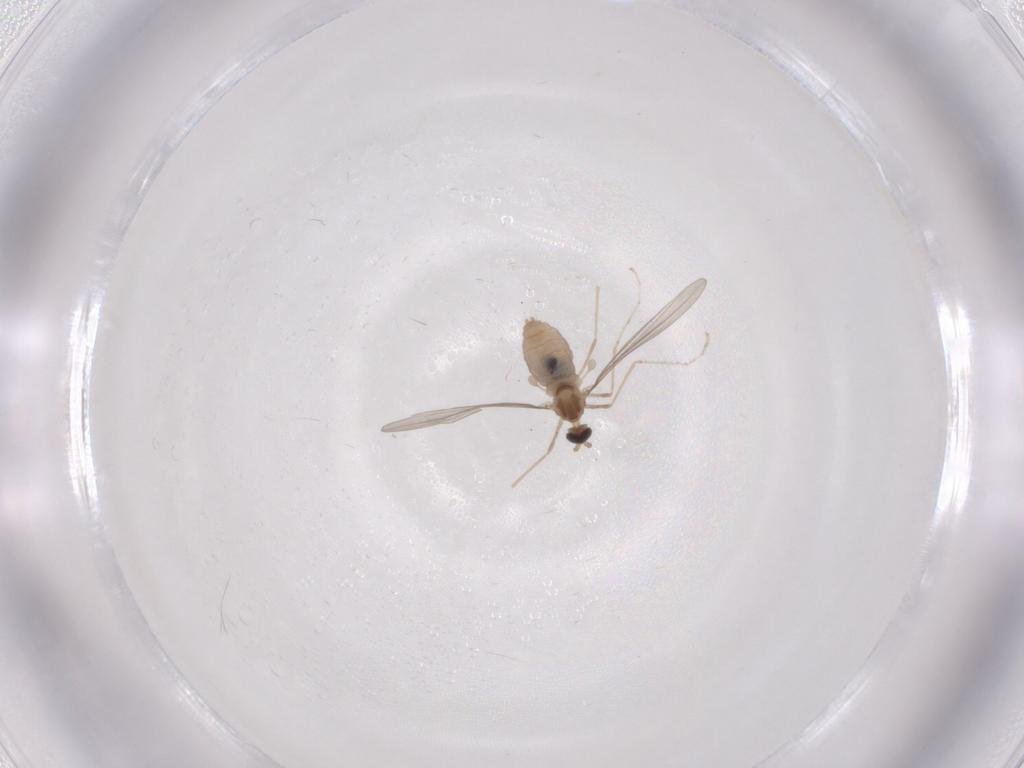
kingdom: Animalia
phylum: Arthropoda
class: Insecta
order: Diptera
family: Cecidomyiidae
